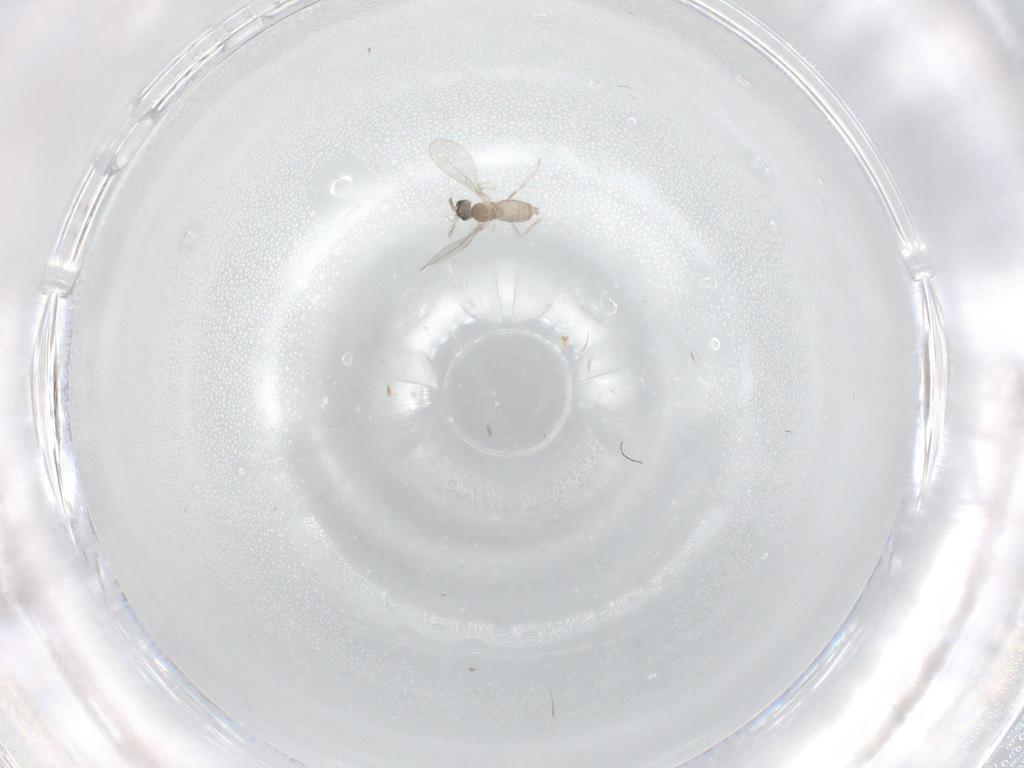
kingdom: Animalia
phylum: Arthropoda
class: Insecta
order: Diptera
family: Cecidomyiidae
